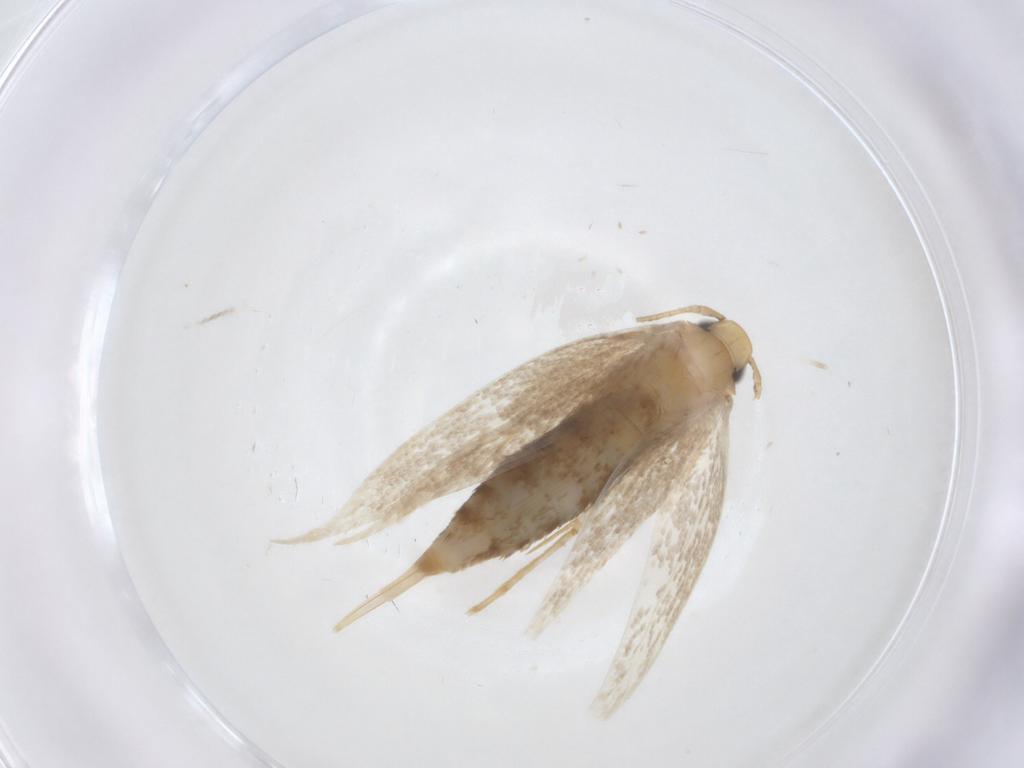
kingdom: Animalia
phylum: Arthropoda
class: Insecta
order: Lepidoptera
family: Tineidae
